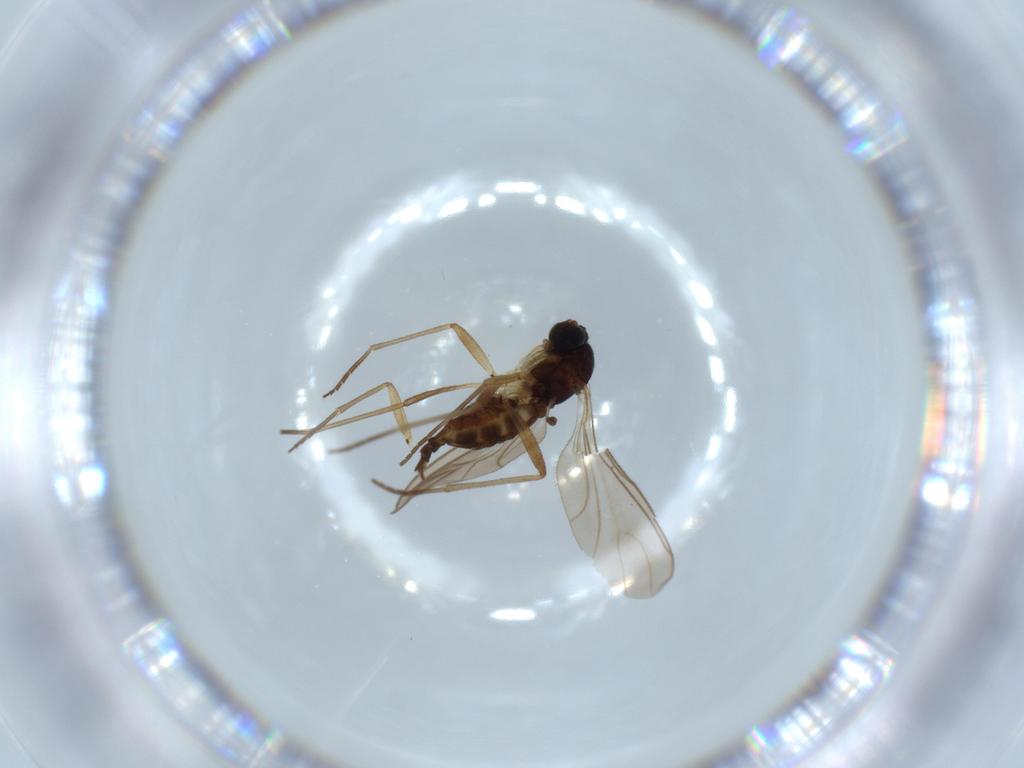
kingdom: Animalia
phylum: Arthropoda
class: Insecta
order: Diptera
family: Sciaridae
